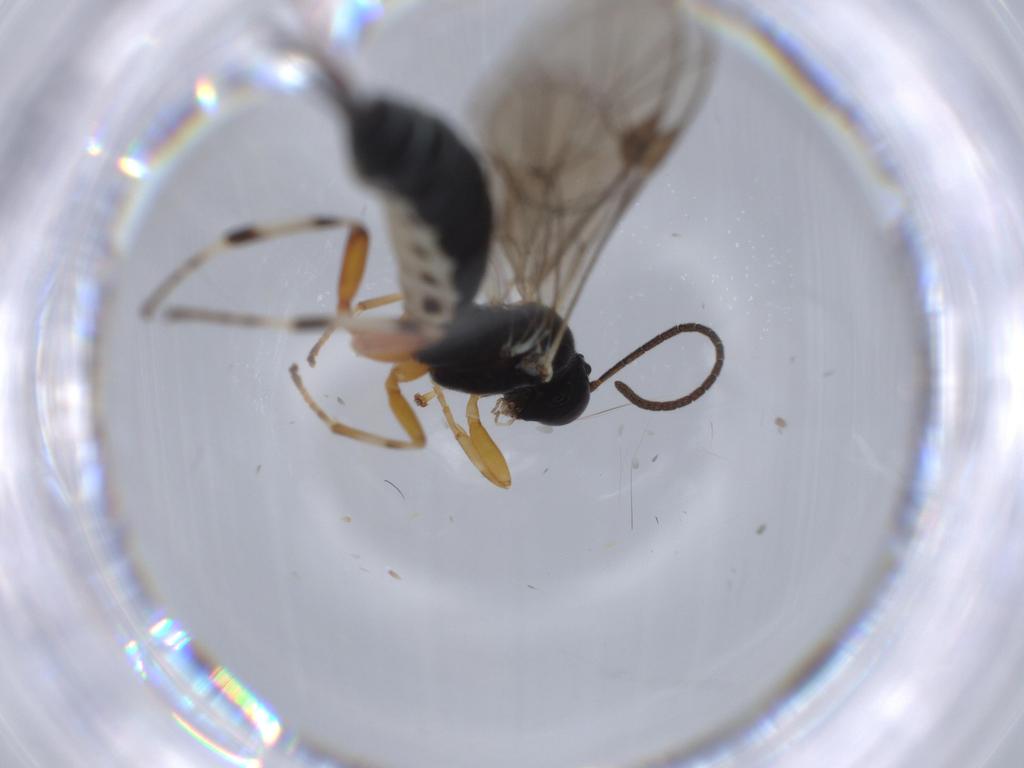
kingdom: Animalia
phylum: Arthropoda
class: Insecta
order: Hymenoptera
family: Ichneumonidae
